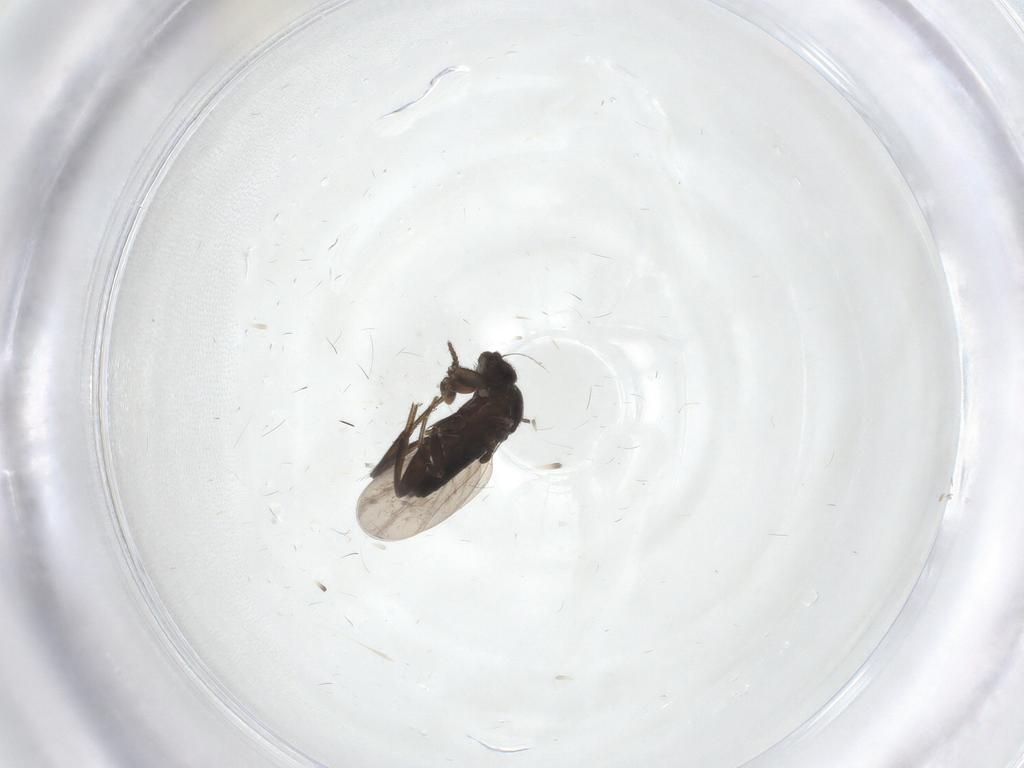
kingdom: Animalia
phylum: Arthropoda
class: Insecta
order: Diptera
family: Phoridae
